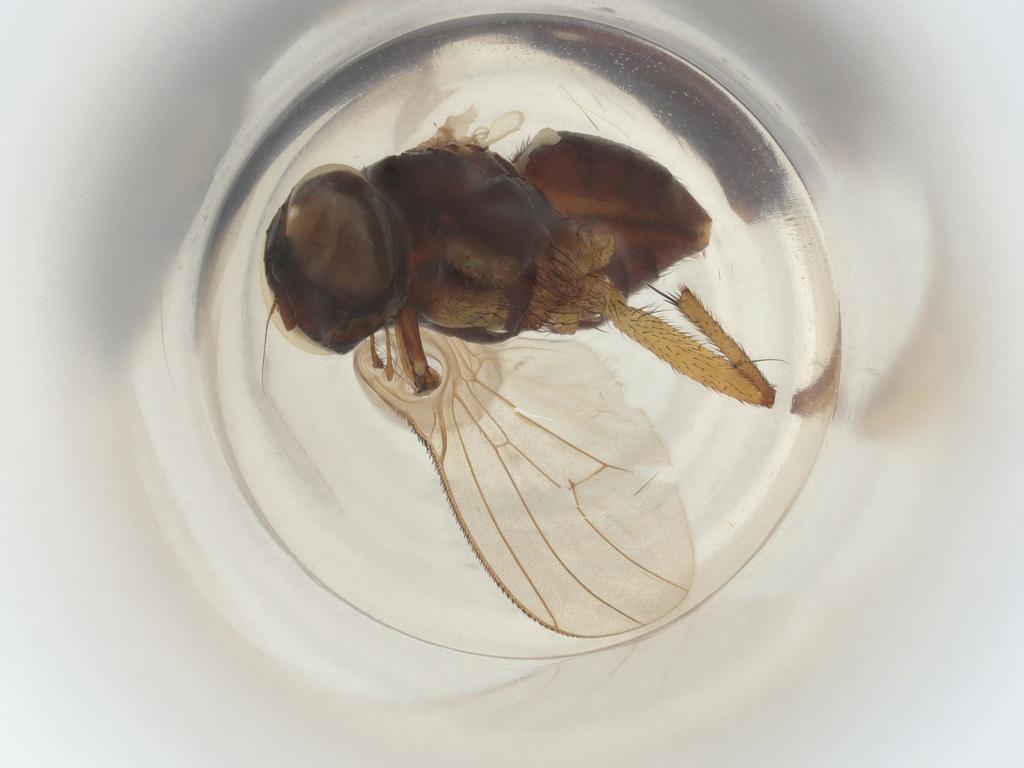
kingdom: Animalia
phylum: Arthropoda
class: Insecta
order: Diptera
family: Muscidae
